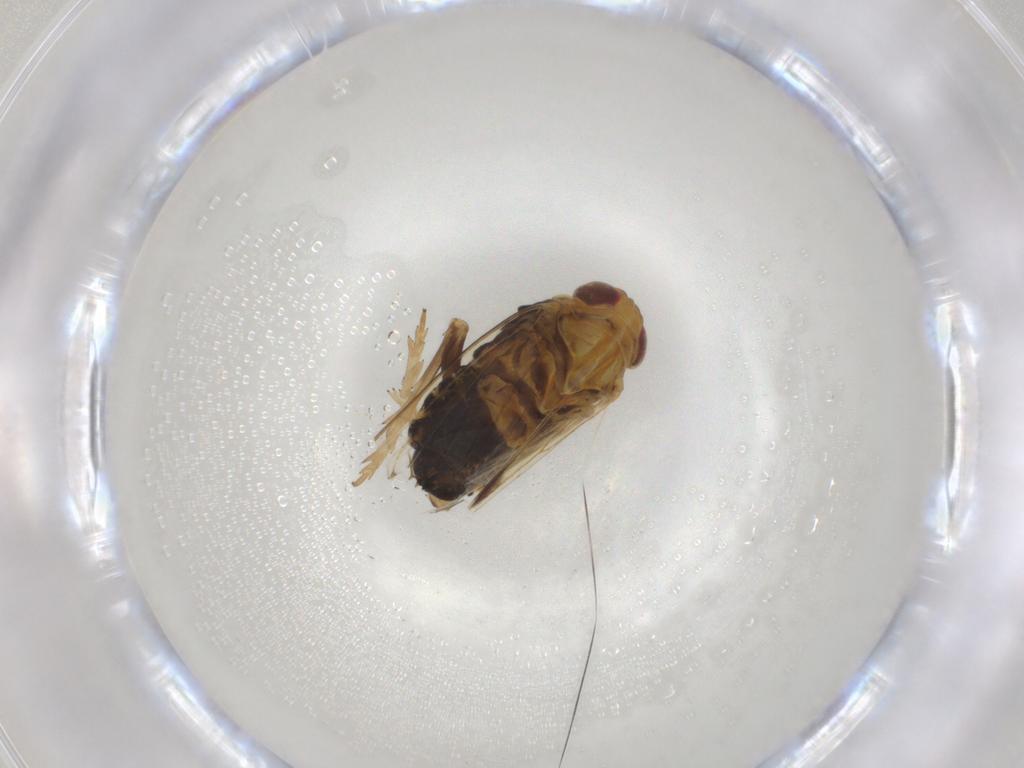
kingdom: Animalia
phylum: Arthropoda
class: Insecta
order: Hemiptera
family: Delphacidae
